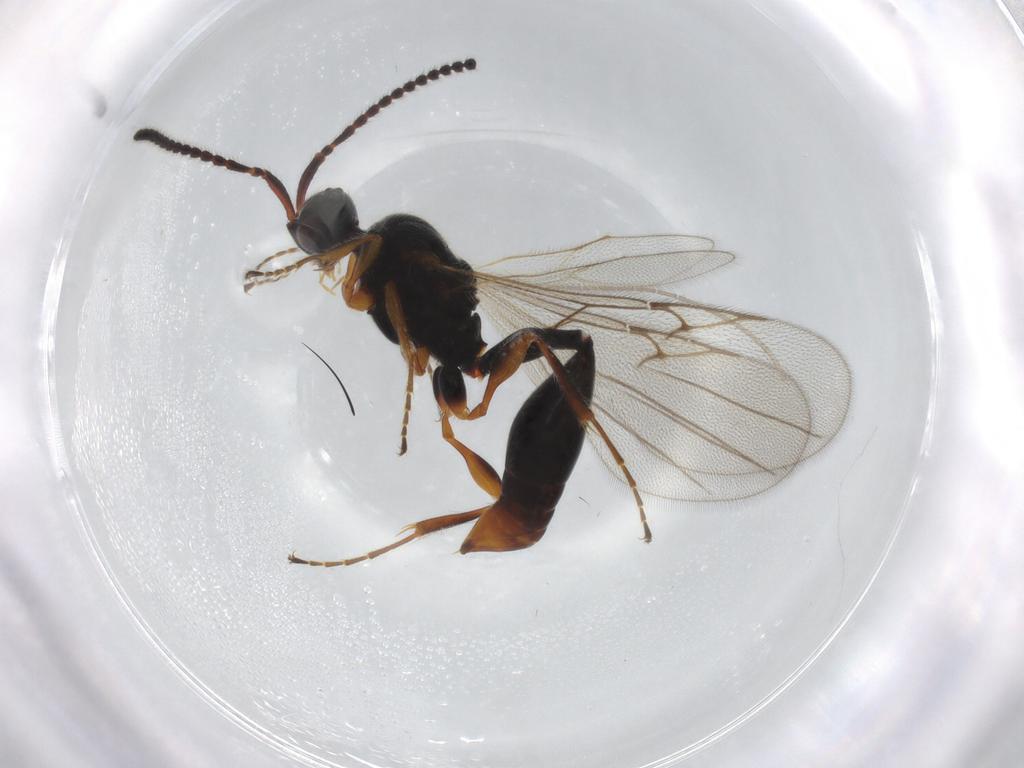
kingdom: Animalia
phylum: Arthropoda
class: Insecta
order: Hymenoptera
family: Diapriidae
